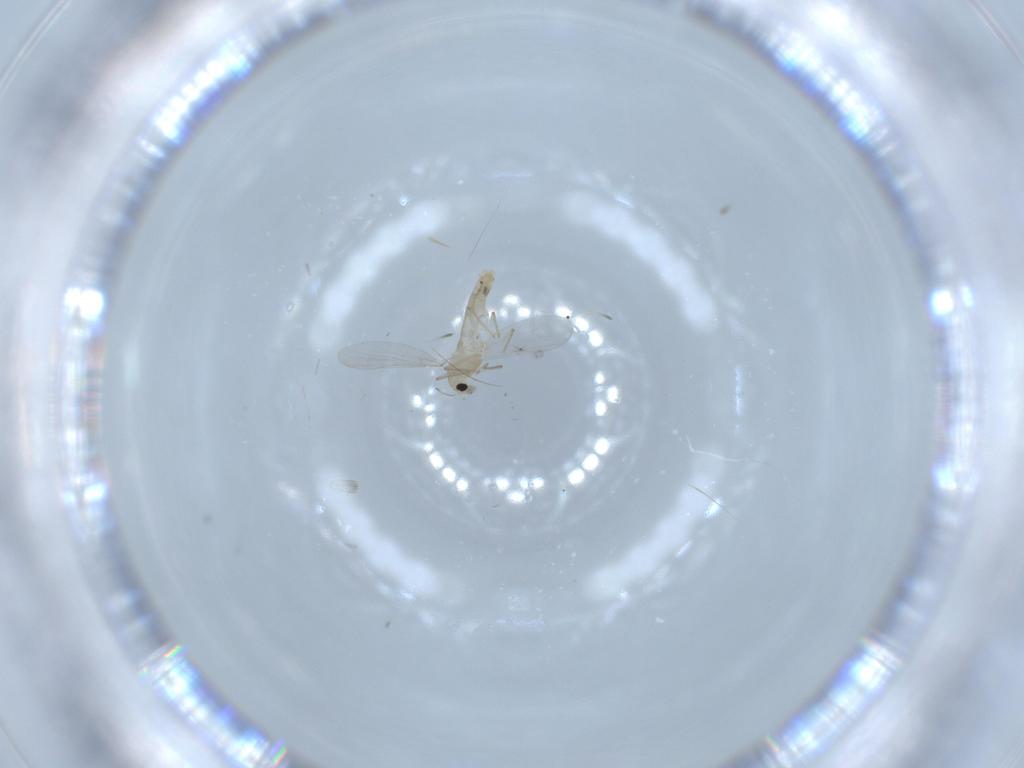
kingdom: Animalia
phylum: Arthropoda
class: Insecta
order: Diptera
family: Chironomidae
